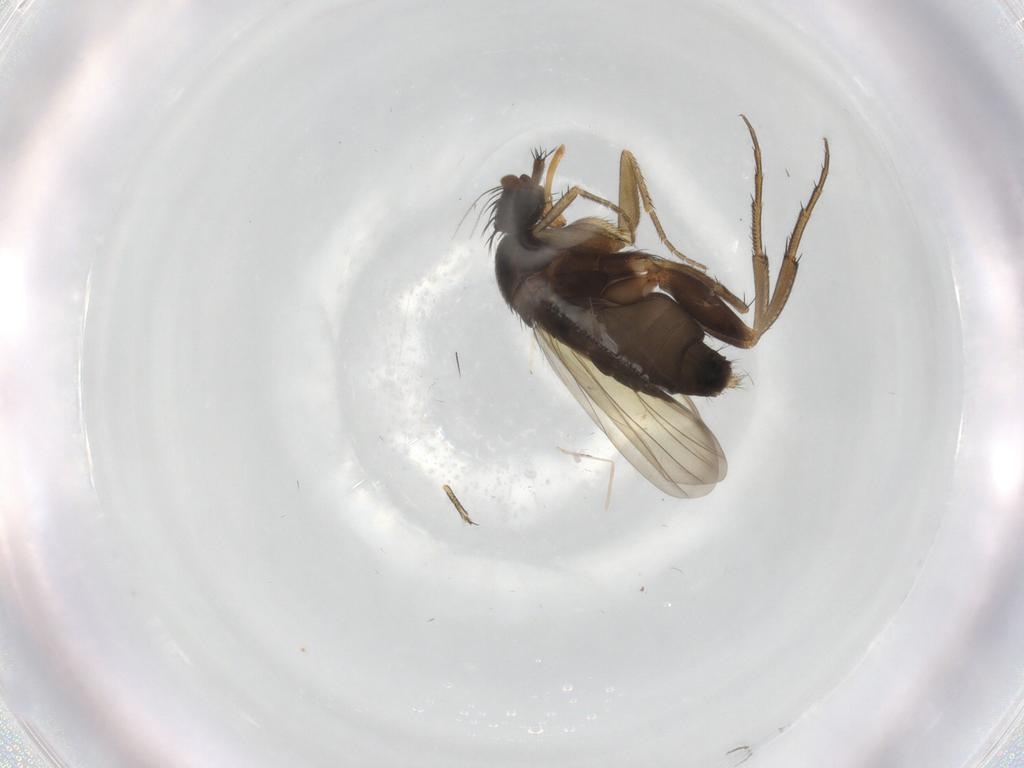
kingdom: Animalia
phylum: Arthropoda
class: Insecta
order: Diptera
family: Phoridae
